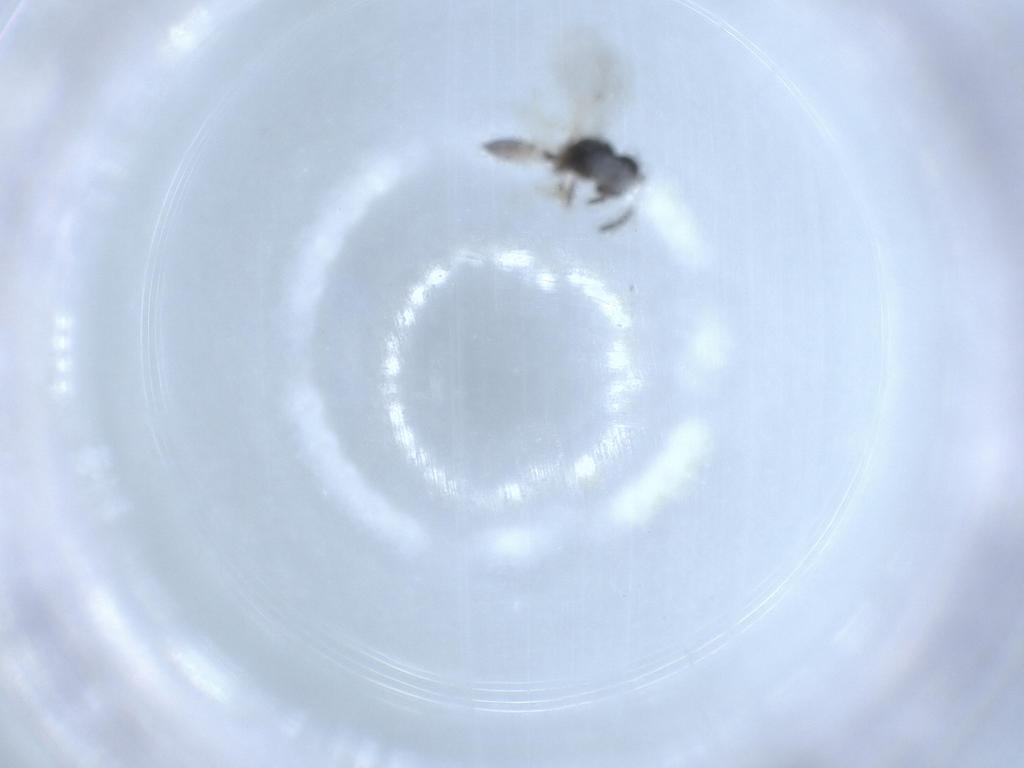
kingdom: Animalia
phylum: Arthropoda
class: Insecta
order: Hymenoptera
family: Pteromalidae
